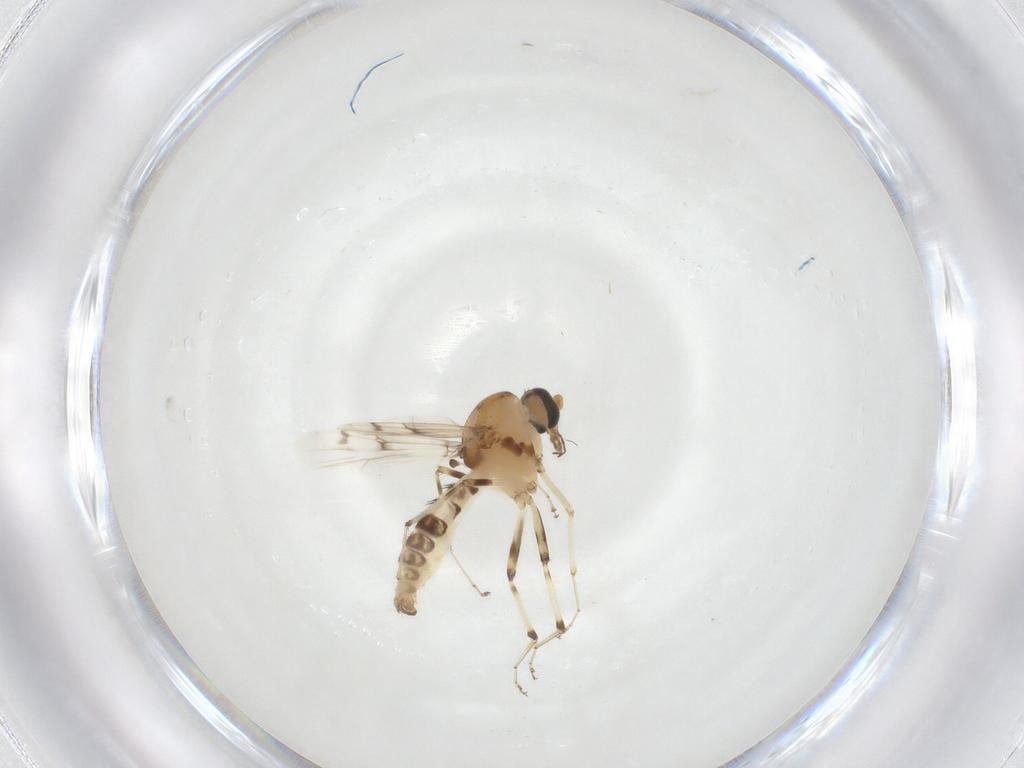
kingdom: Animalia
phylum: Arthropoda
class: Insecta
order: Diptera
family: Ceratopogonidae
